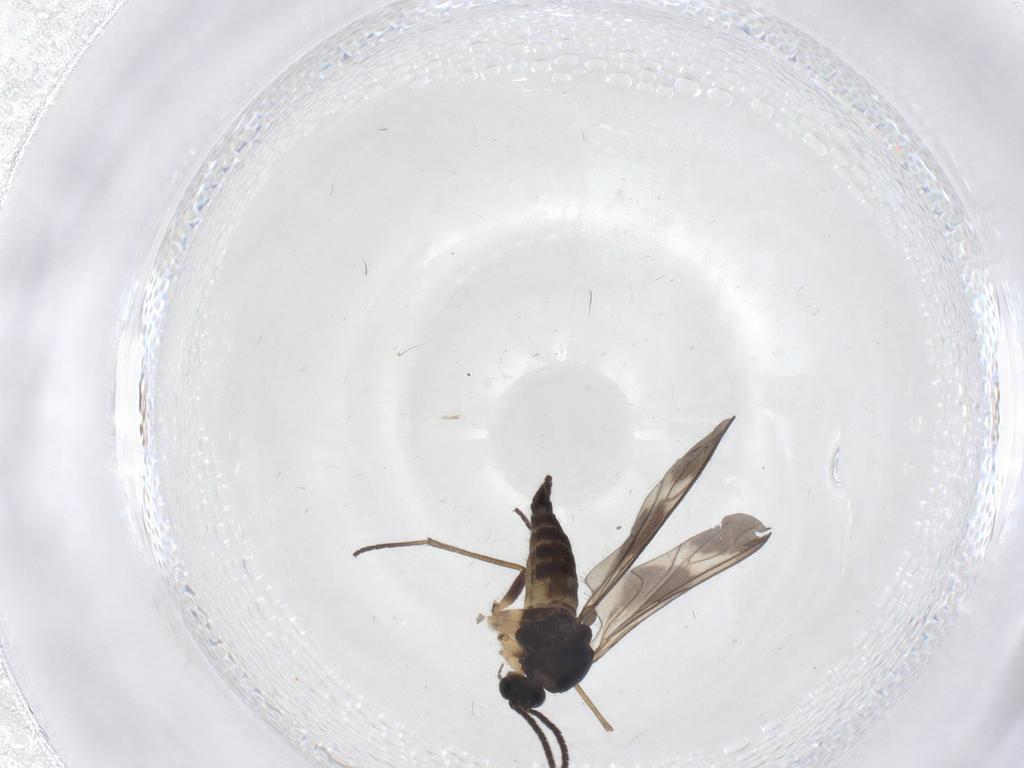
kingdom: Animalia
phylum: Arthropoda
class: Insecta
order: Diptera
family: Sciaridae
